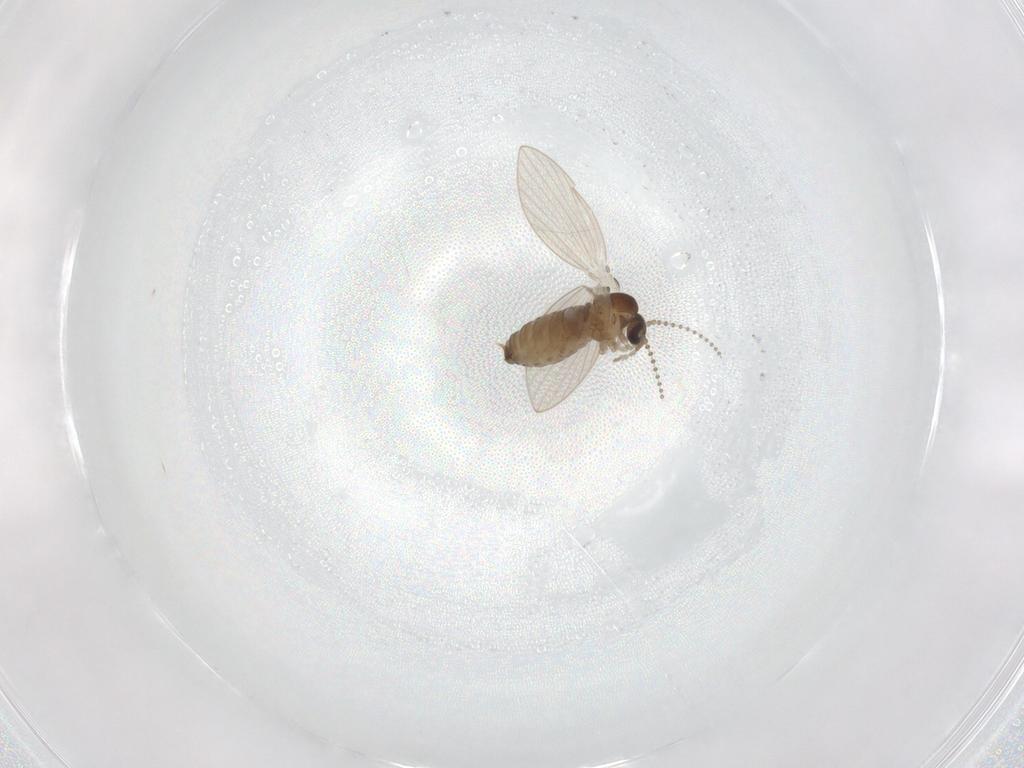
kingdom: Animalia
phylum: Arthropoda
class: Insecta
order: Diptera
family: Psychodidae
